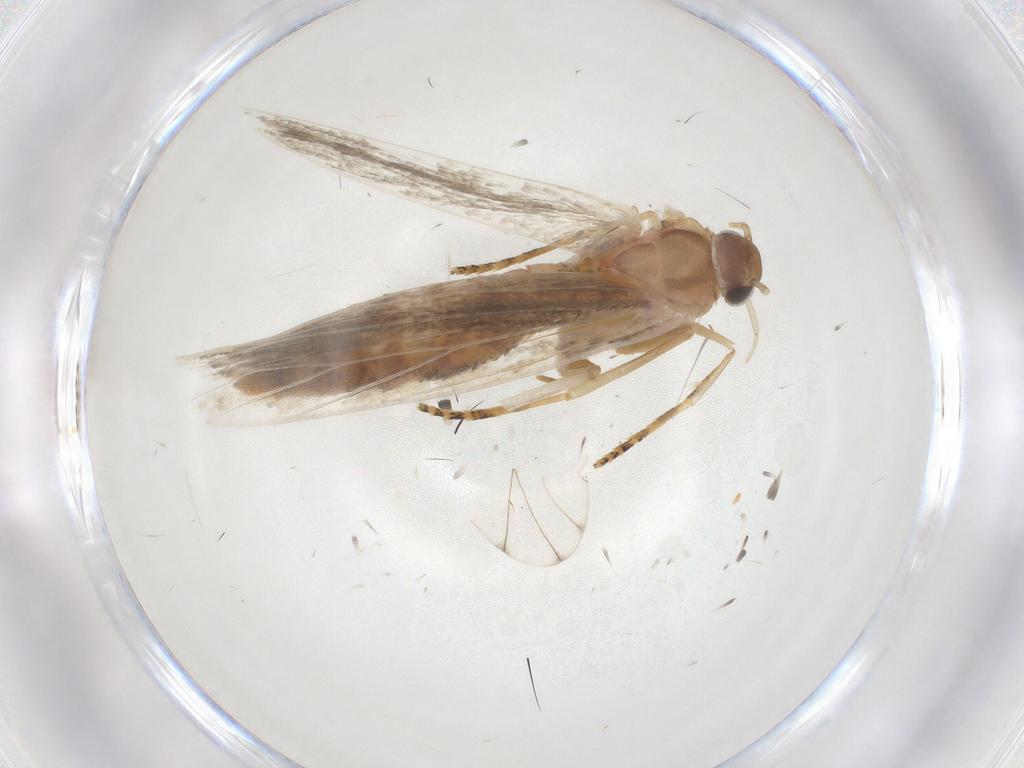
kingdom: Animalia
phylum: Arthropoda
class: Insecta
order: Lepidoptera
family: Crambidae
